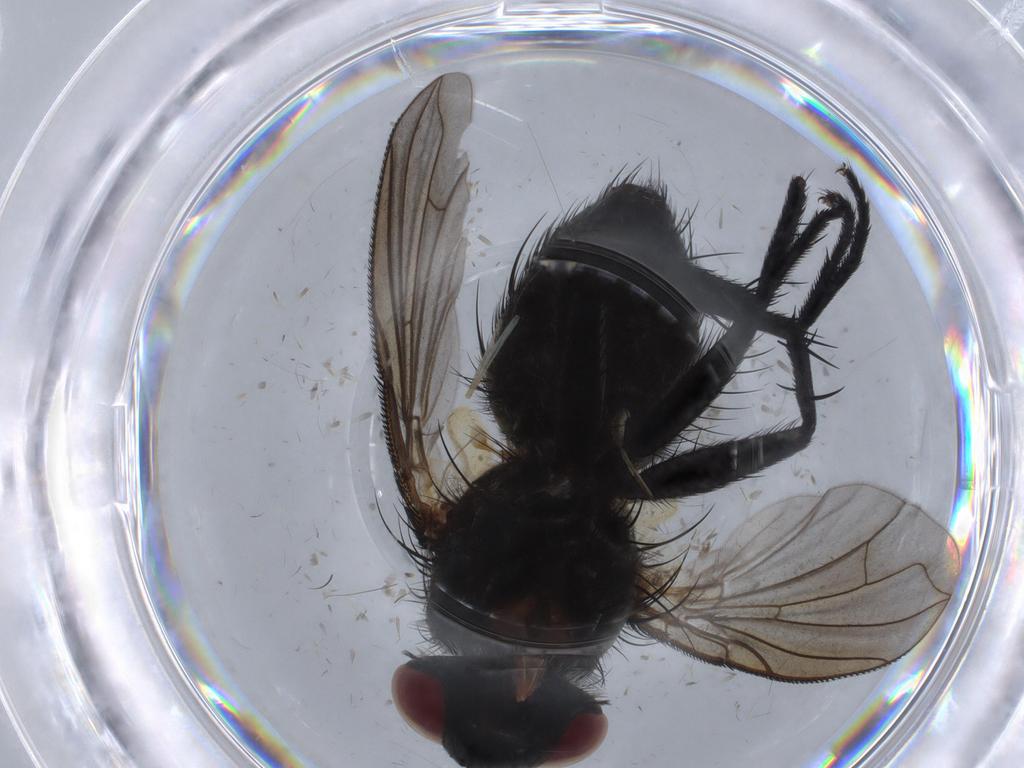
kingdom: Animalia
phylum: Arthropoda
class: Insecta
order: Diptera
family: Tachinidae
